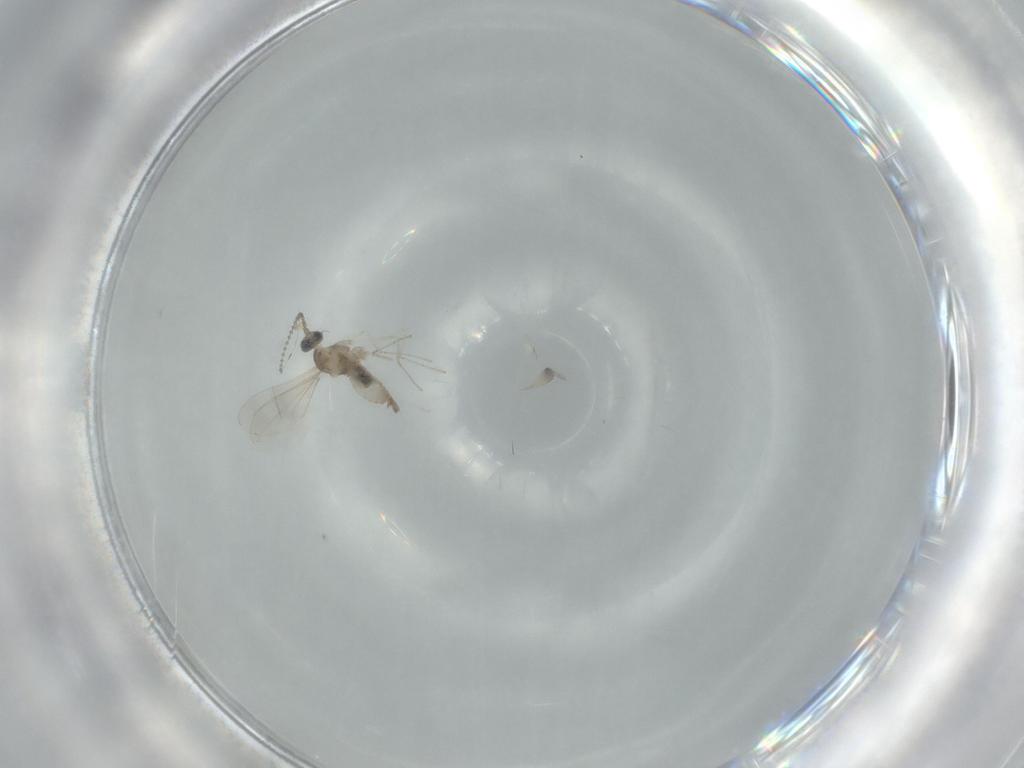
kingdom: Animalia
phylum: Arthropoda
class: Insecta
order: Diptera
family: Cecidomyiidae
